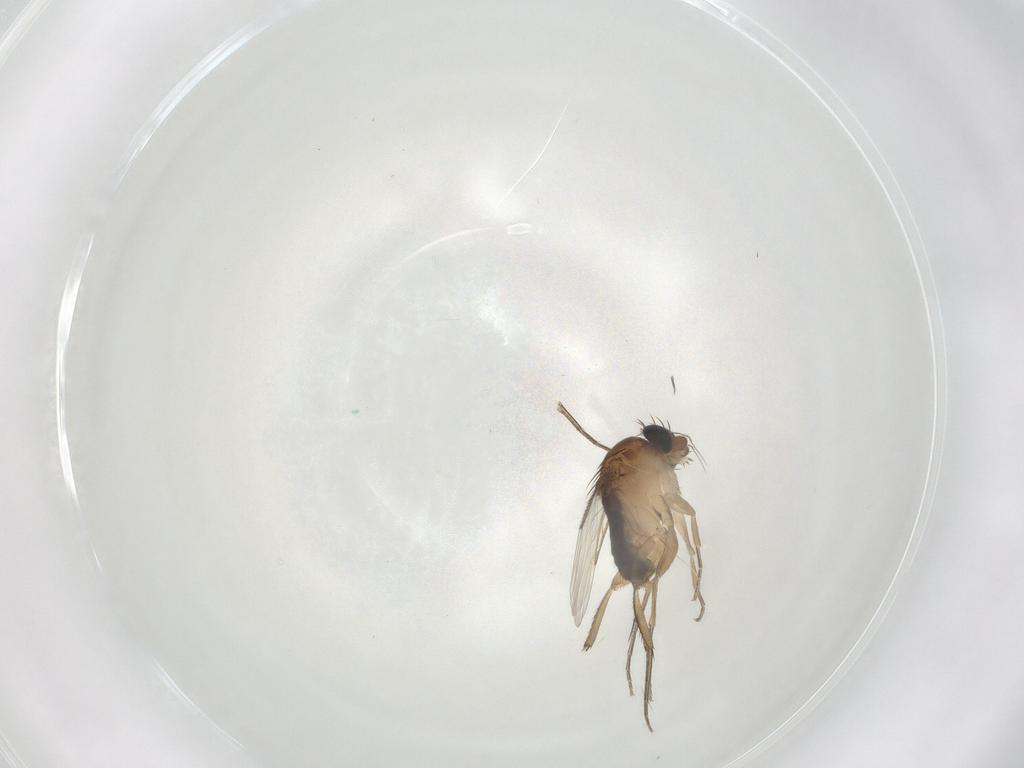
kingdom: Animalia
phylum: Arthropoda
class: Insecta
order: Diptera
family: Phoridae
